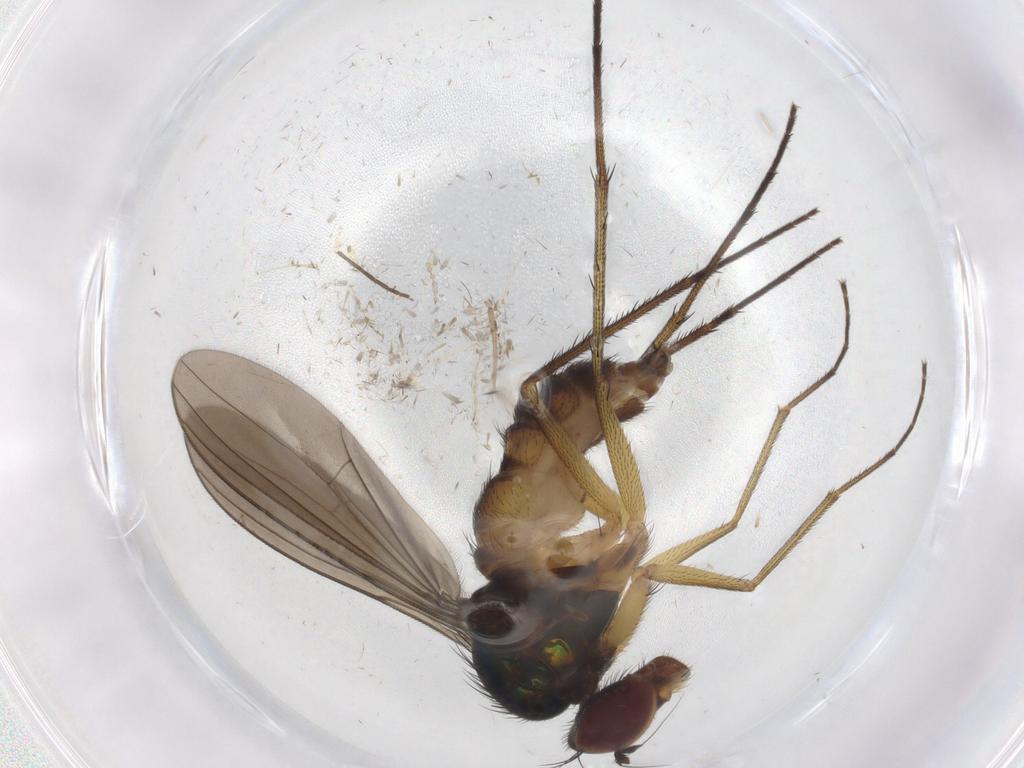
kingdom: Animalia
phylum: Arthropoda
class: Insecta
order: Diptera
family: Dolichopodidae
